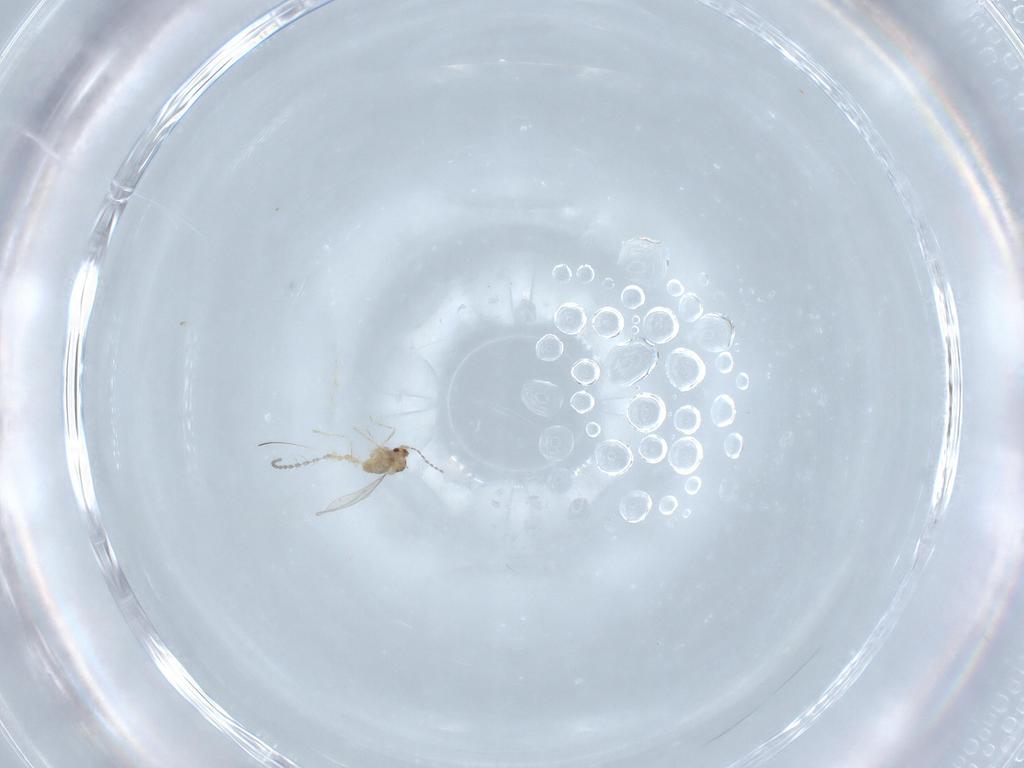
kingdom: Animalia
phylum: Arthropoda
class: Insecta
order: Diptera
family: Cecidomyiidae
